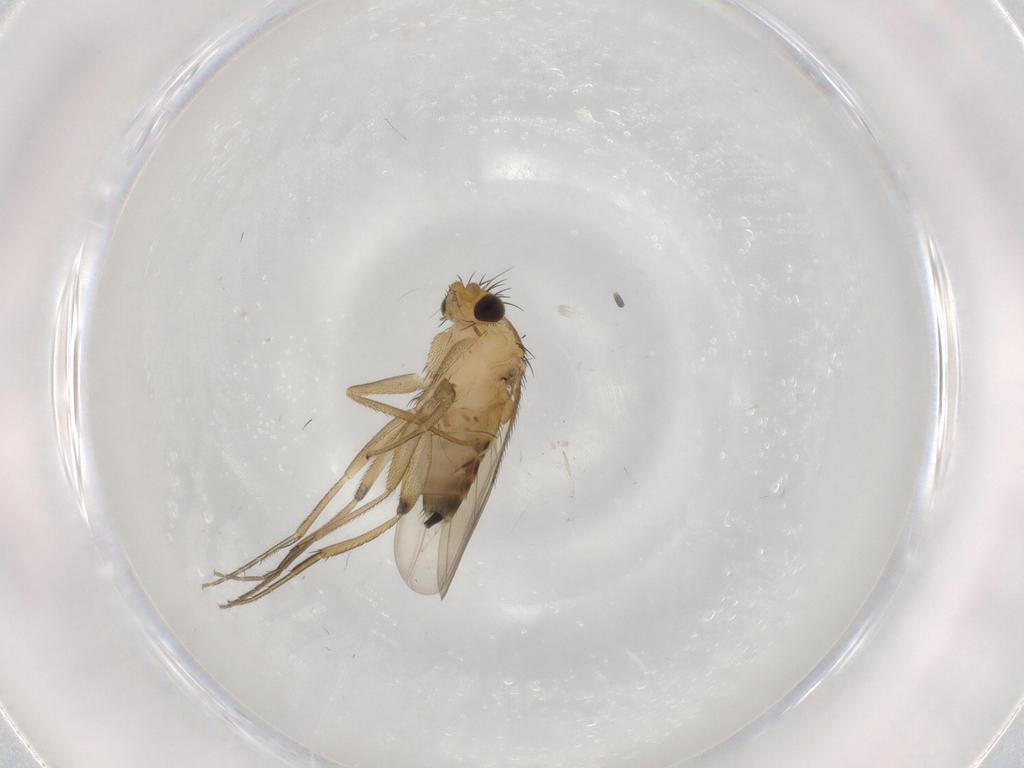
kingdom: Animalia
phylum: Arthropoda
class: Insecta
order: Diptera
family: Phoridae
